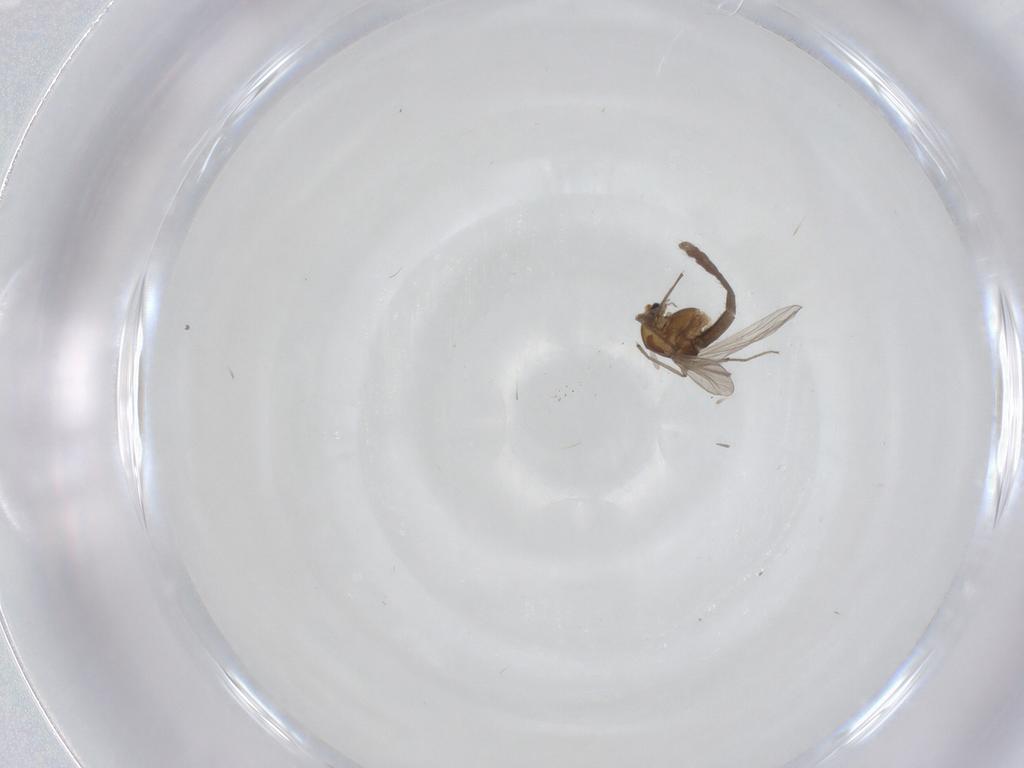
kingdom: Animalia
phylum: Arthropoda
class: Insecta
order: Diptera
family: Chironomidae
